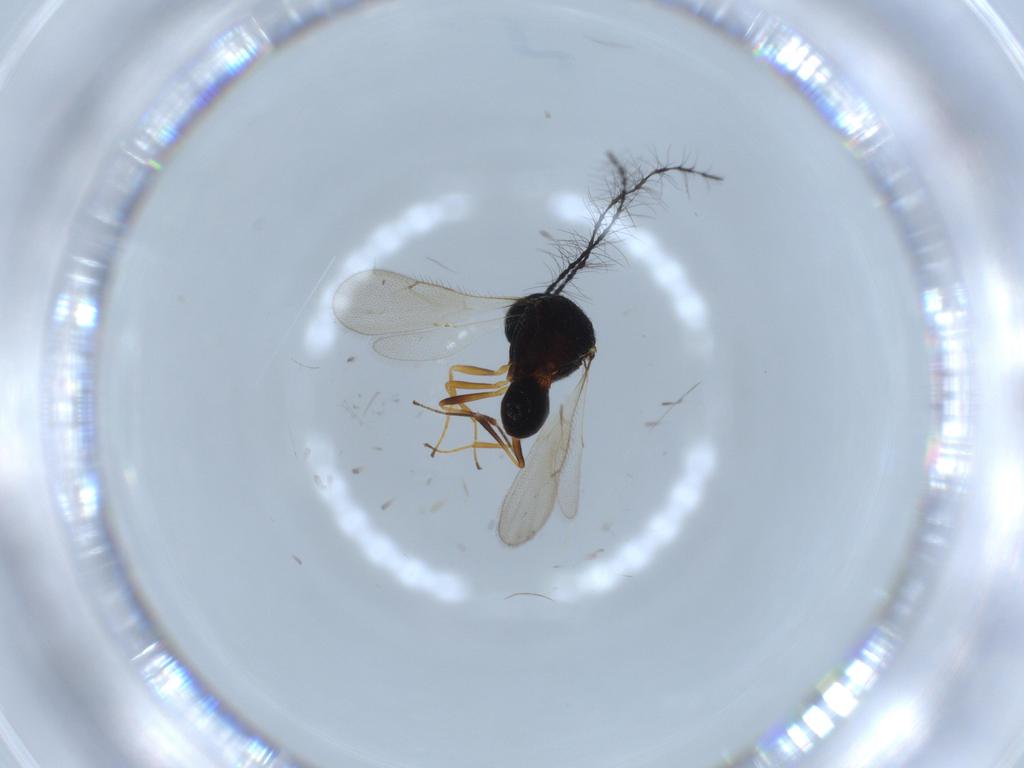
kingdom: Animalia
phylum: Arthropoda
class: Insecta
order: Hymenoptera
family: Scelionidae
